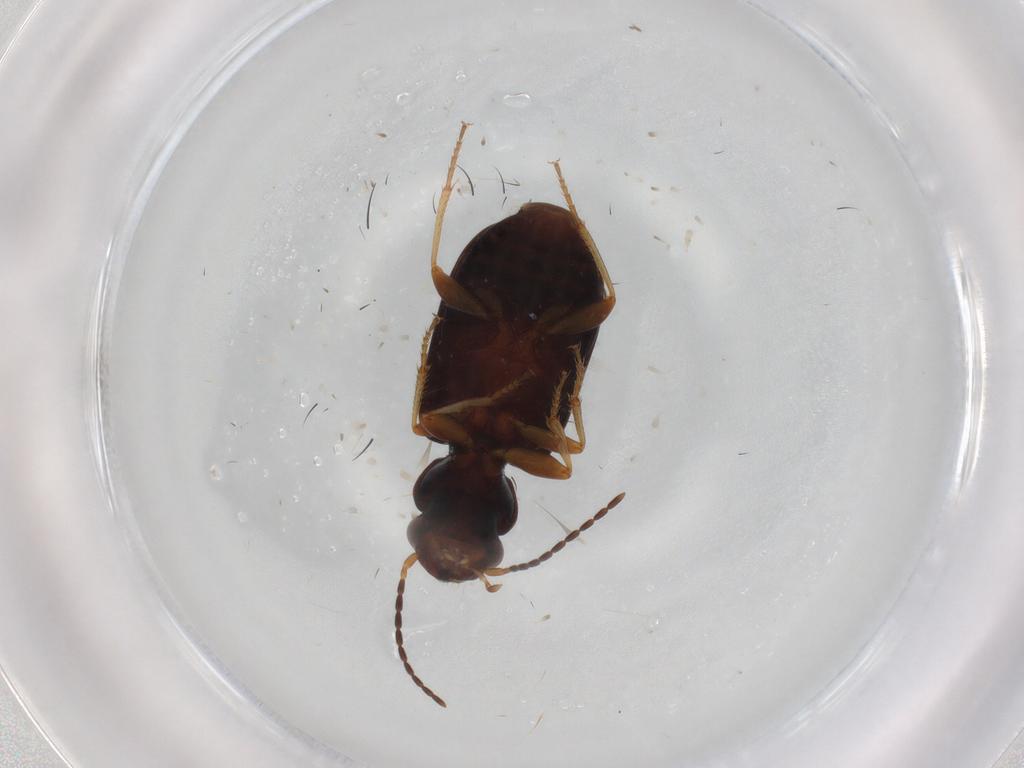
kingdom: Animalia
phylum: Arthropoda
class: Insecta
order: Coleoptera
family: Carabidae
